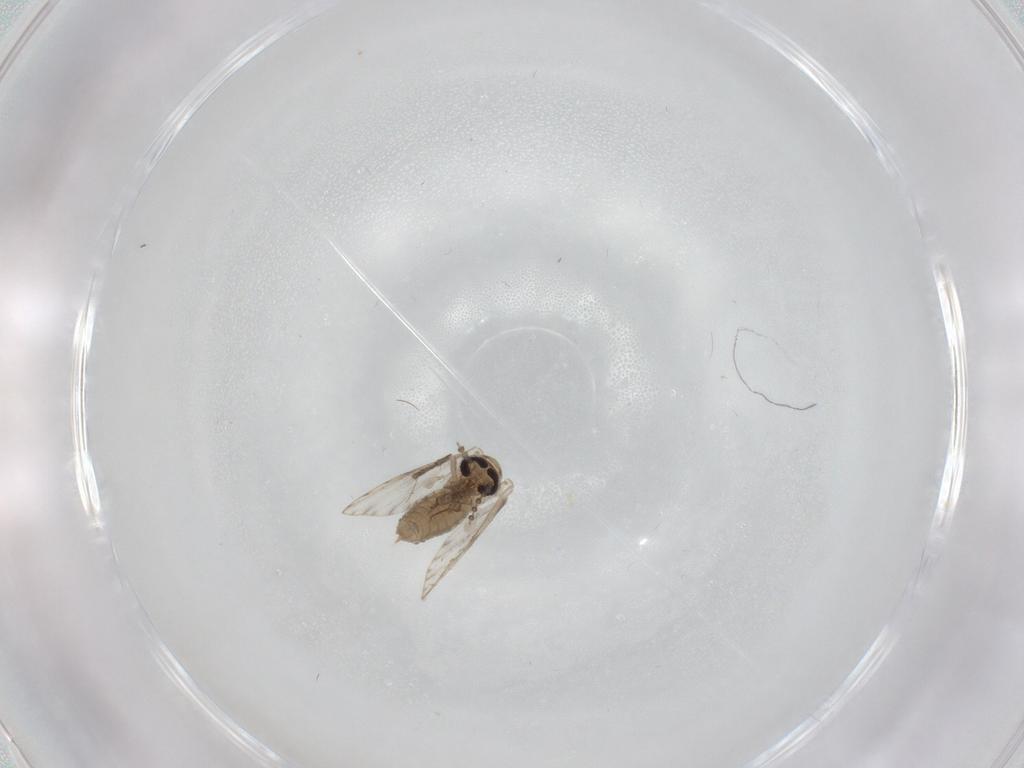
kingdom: Animalia
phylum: Arthropoda
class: Insecta
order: Diptera
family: Psychodidae
